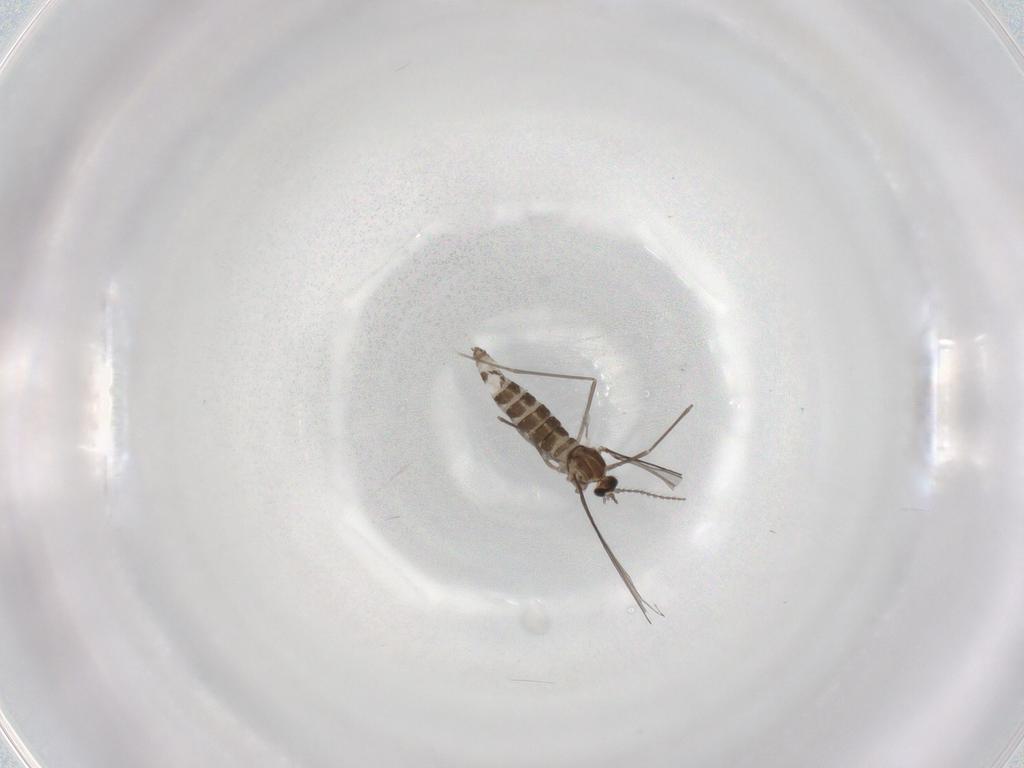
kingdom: Animalia
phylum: Arthropoda
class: Insecta
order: Diptera
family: Cecidomyiidae
